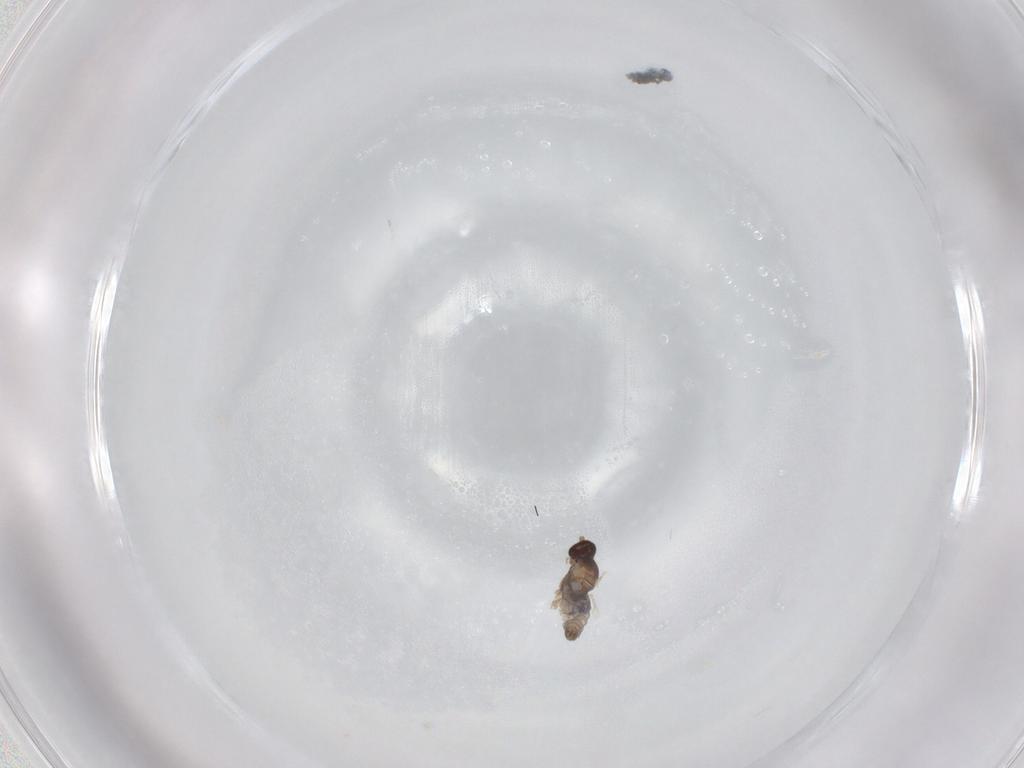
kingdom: Animalia
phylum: Arthropoda
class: Insecta
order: Diptera
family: Cecidomyiidae
